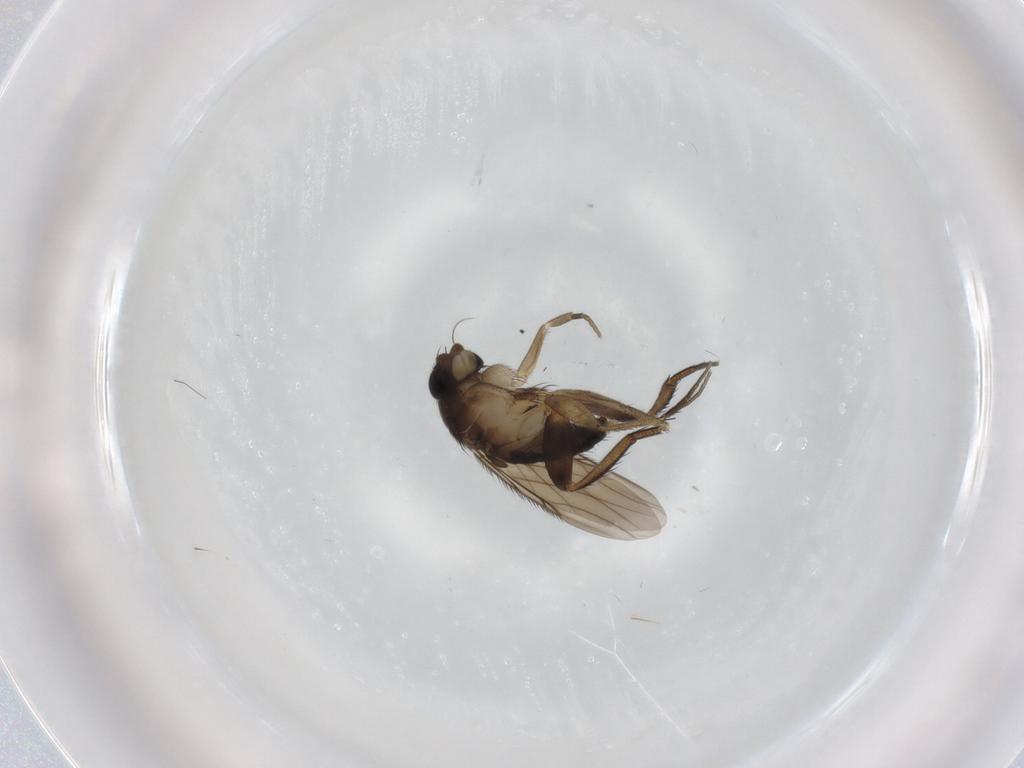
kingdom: Animalia
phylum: Arthropoda
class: Insecta
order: Diptera
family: Phoridae
